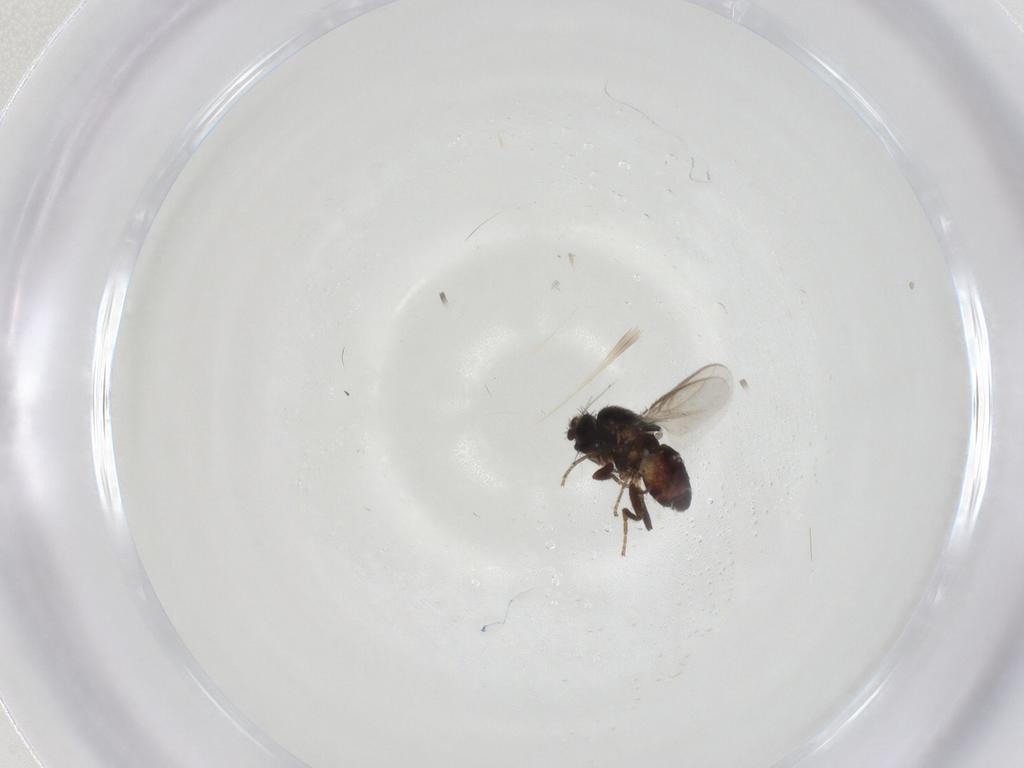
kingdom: Animalia
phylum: Arthropoda
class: Insecta
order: Diptera
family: Sphaeroceridae
